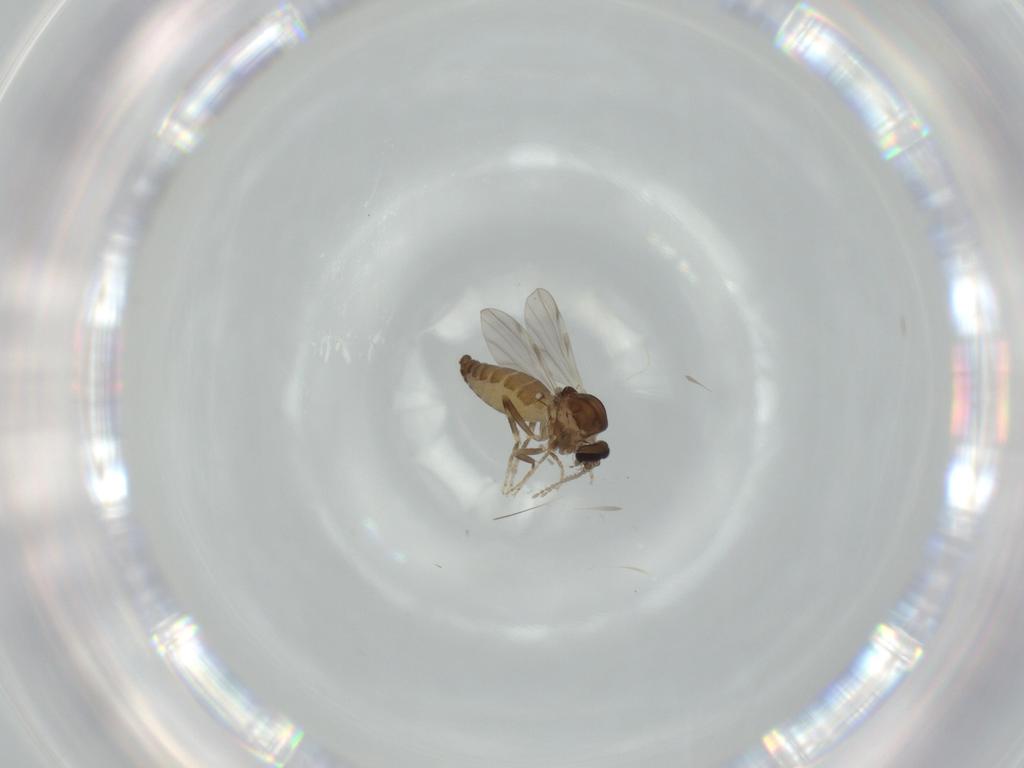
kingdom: Animalia
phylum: Arthropoda
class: Insecta
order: Diptera
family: Ceratopogonidae
